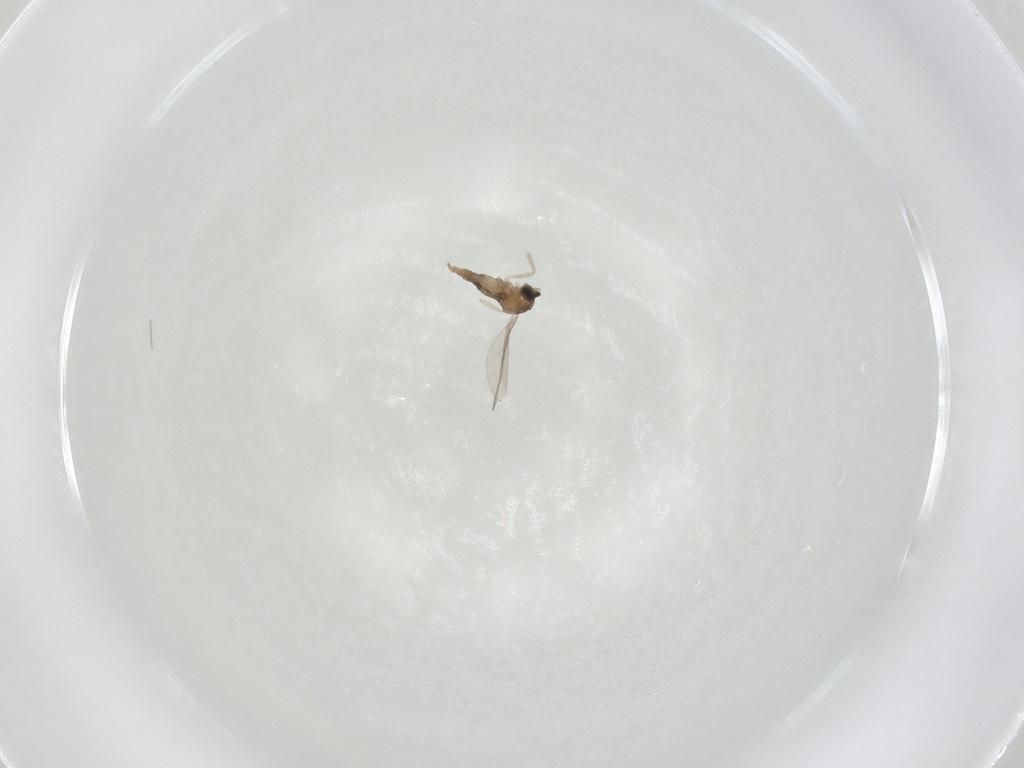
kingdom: Animalia
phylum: Arthropoda
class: Insecta
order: Diptera
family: Cecidomyiidae
